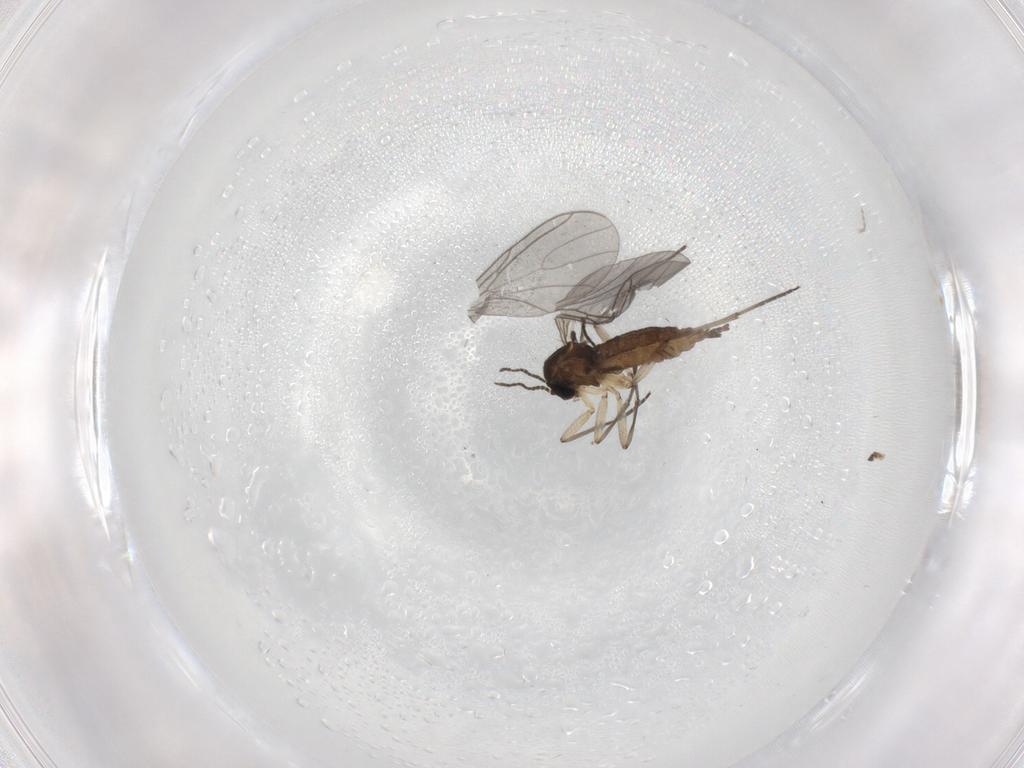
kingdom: Animalia
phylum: Arthropoda
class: Insecta
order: Diptera
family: Sciaridae
